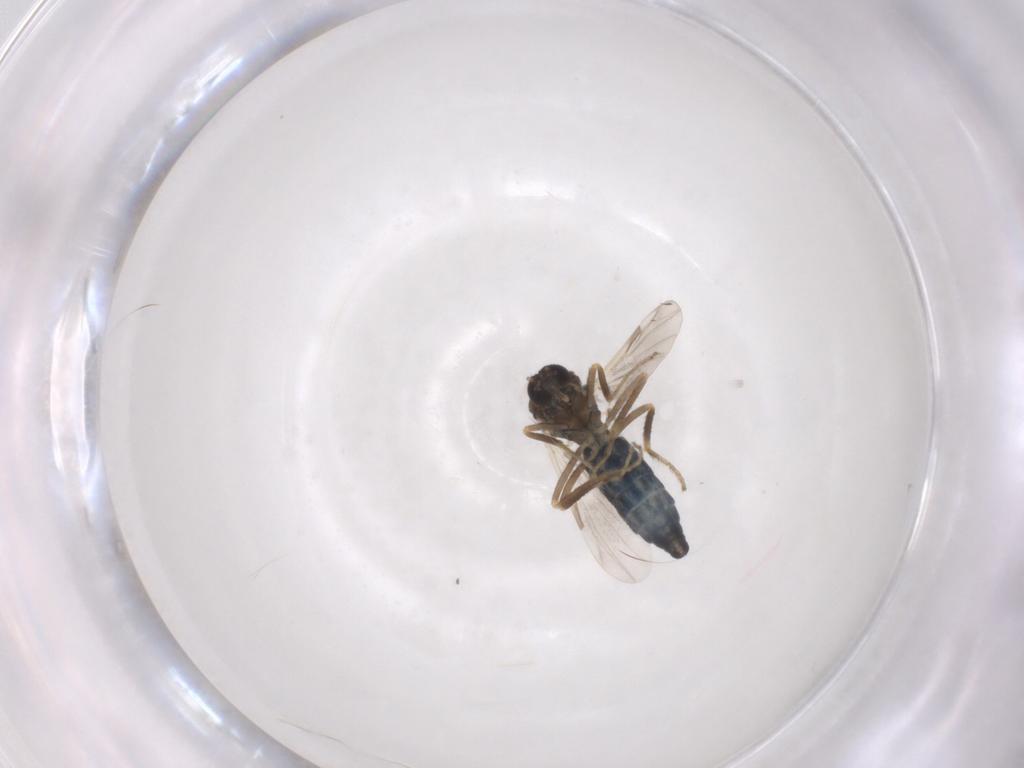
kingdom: Animalia
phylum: Arthropoda
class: Insecta
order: Diptera
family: Ceratopogonidae
